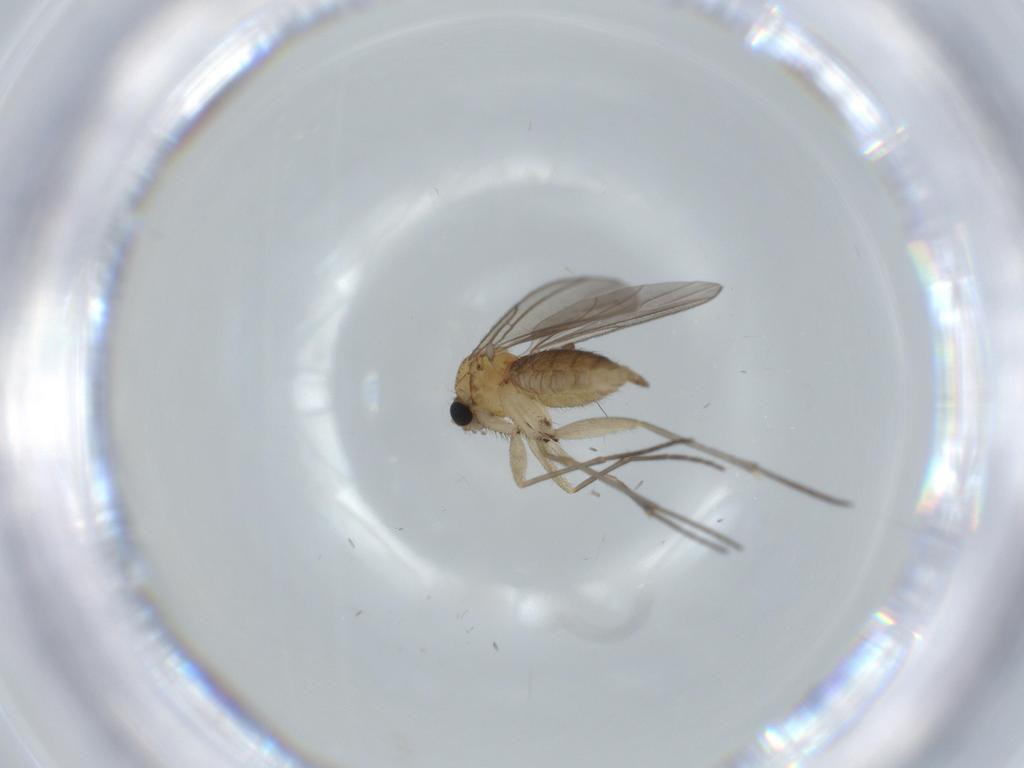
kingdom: Animalia
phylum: Arthropoda
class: Insecta
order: Diptera
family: Sciaridae
